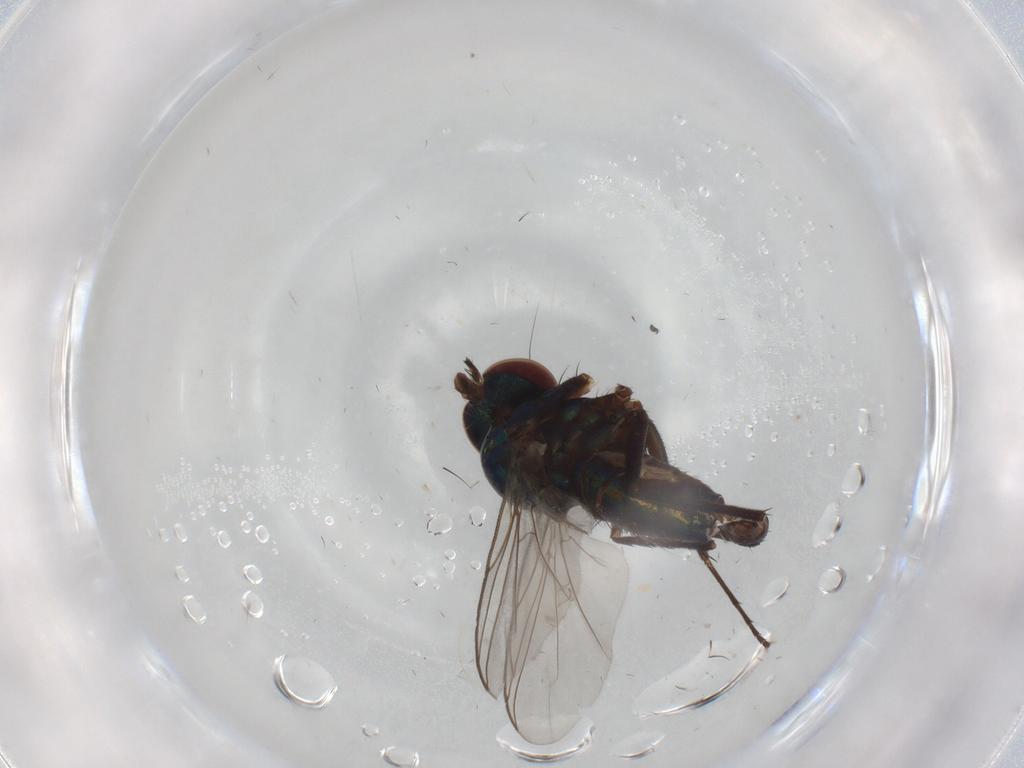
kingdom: Animalia
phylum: Arthropoda
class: Insecta
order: Diptera
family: Dolichopodidae
